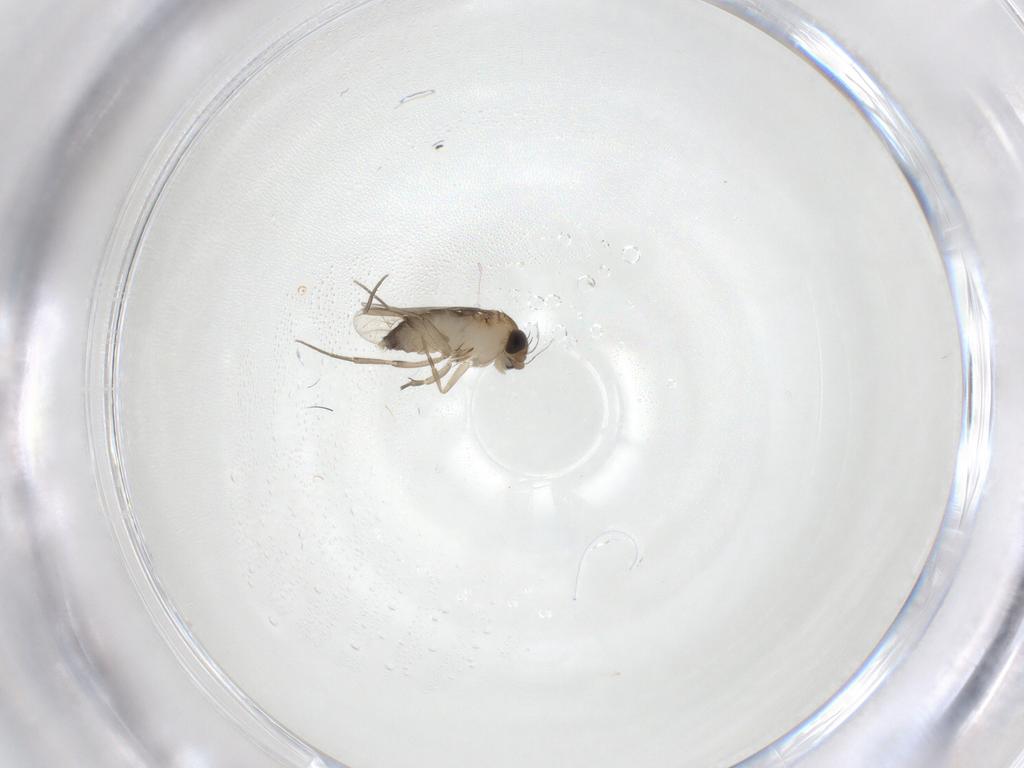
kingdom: Animalia
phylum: Arthropoda
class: Insecta
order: Diptera
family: Phoridae
